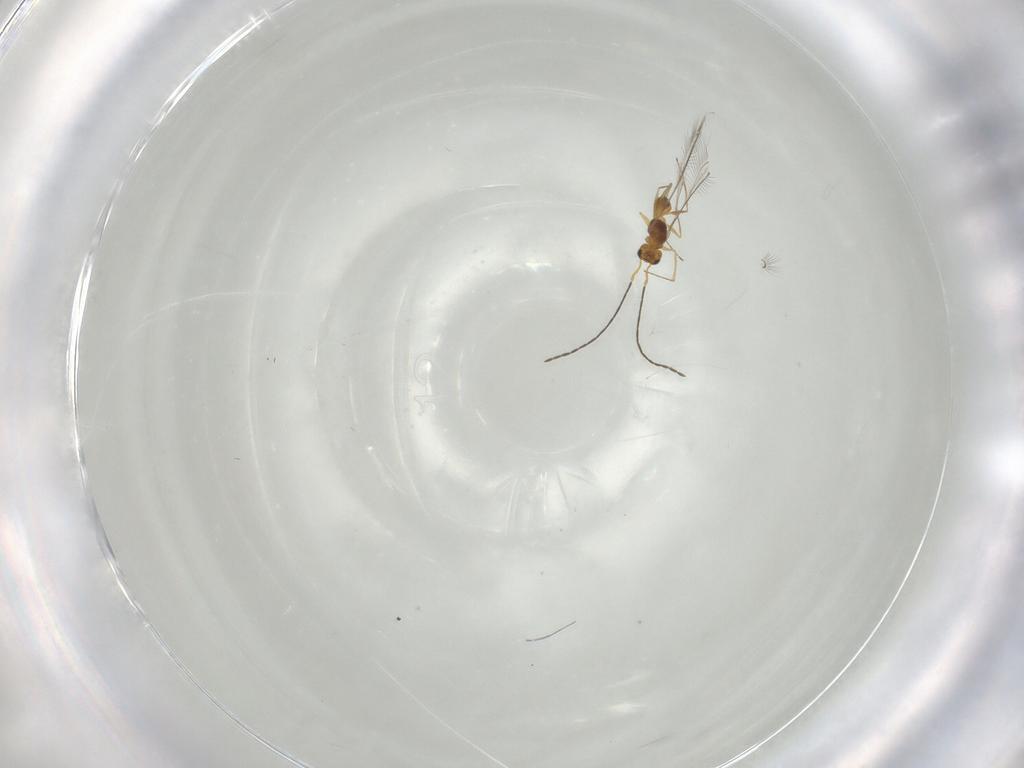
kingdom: Animalia
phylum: Arthropoda
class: Insecta
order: Hymenoptera
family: Mymaridae
